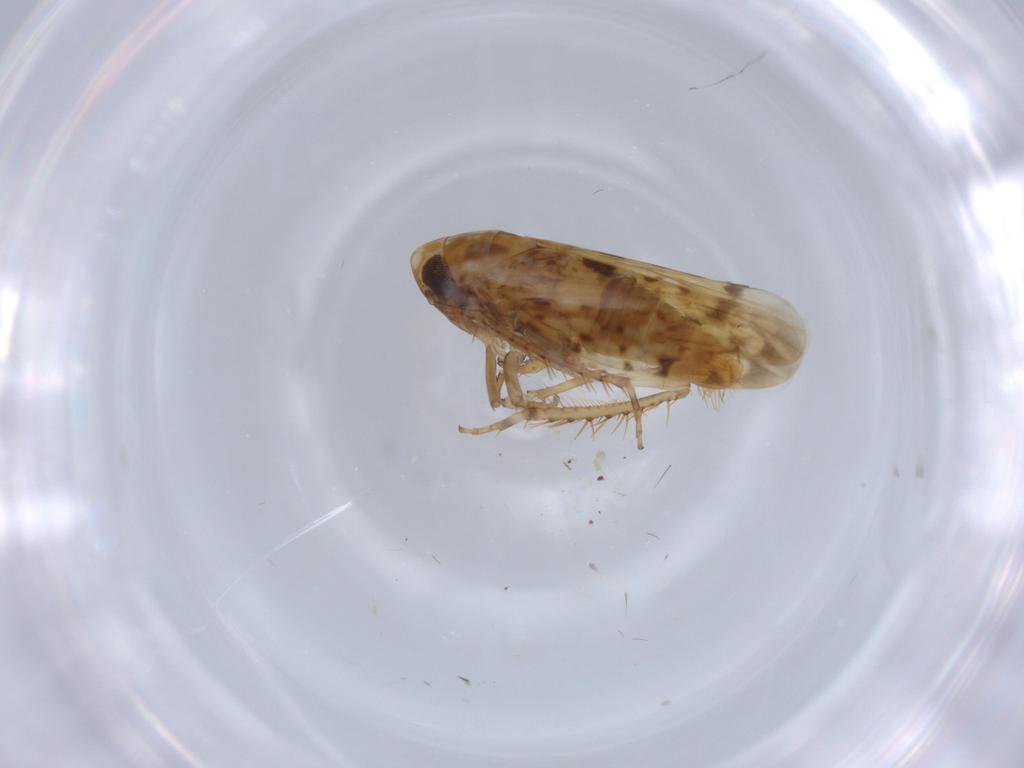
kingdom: Animalia
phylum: Arthropoda
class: Insecta
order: Hemiptera
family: Cicadellidae
